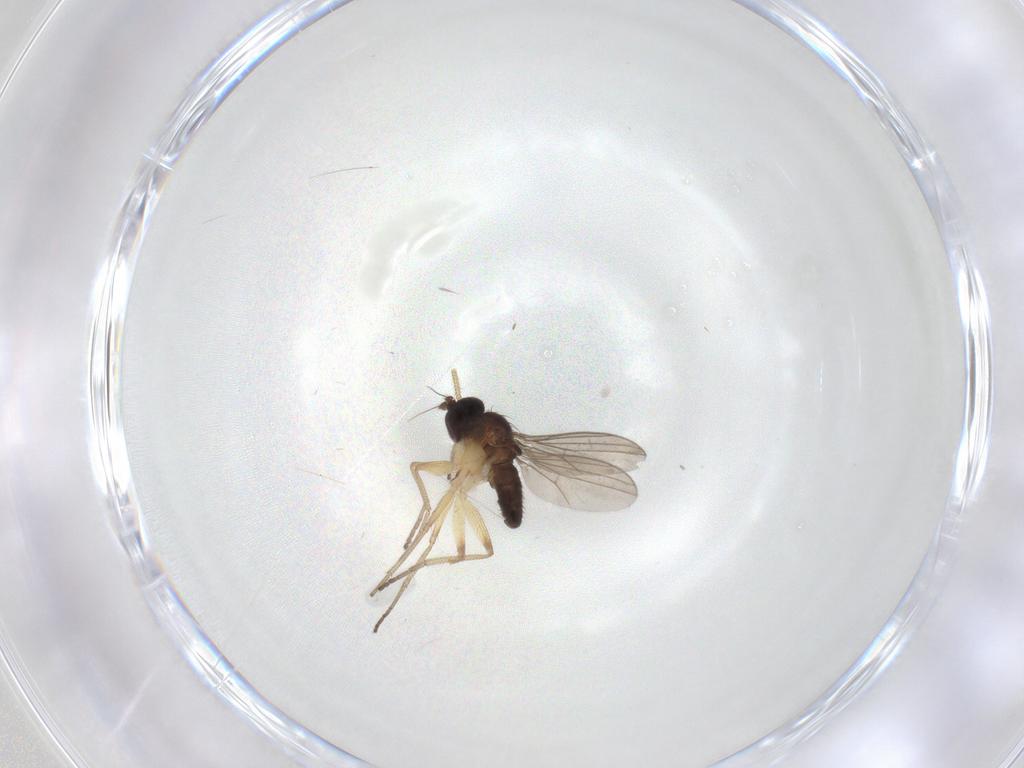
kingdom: Animalia
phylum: Arthropoda
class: Insecta
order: Diptera
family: Dolichopodidae
